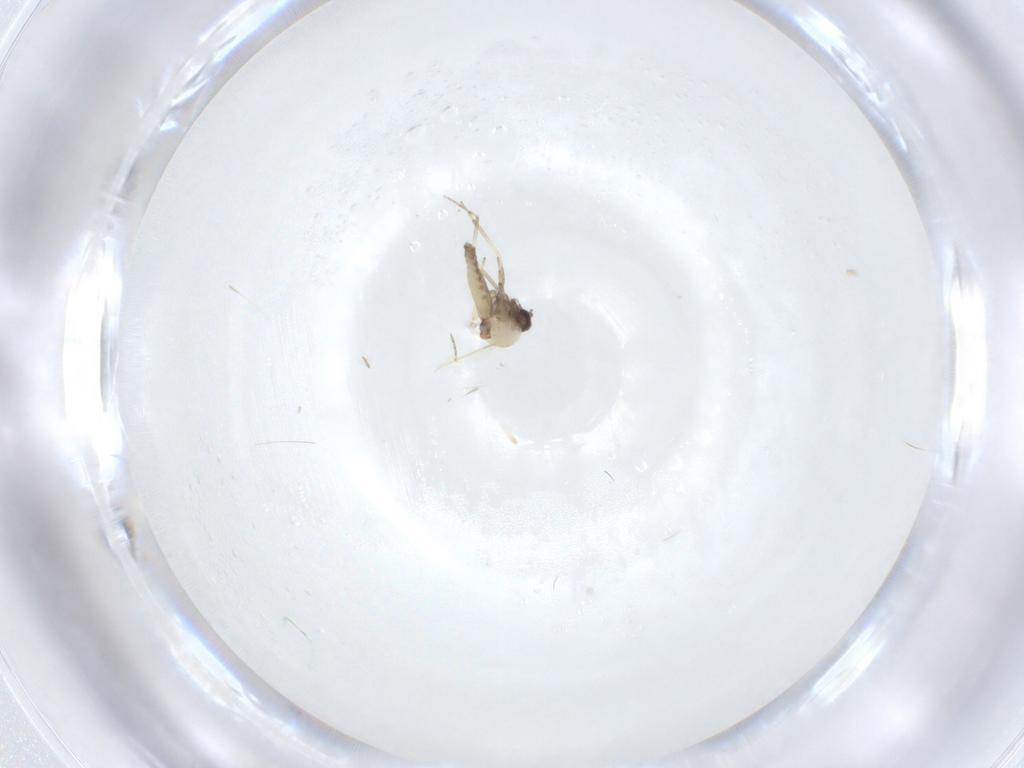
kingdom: Animalia
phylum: Arthropoda
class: Insecta
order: Diptera
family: Ceratopogonidae
